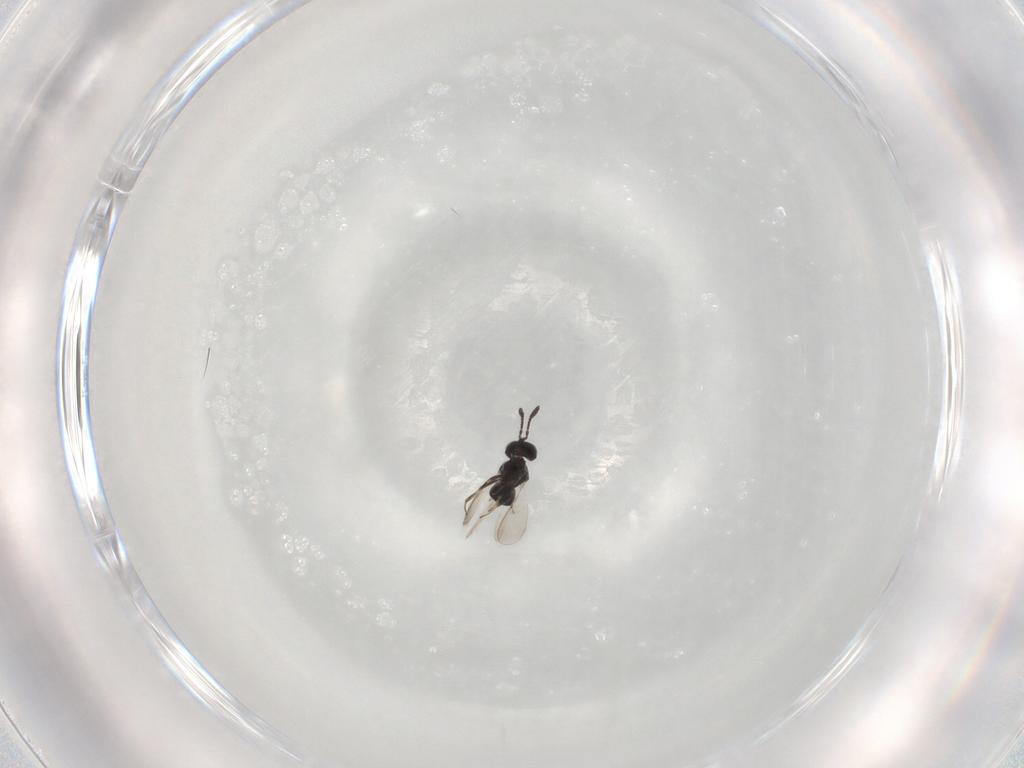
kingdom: Animalia
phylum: Arthropoda
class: Insecta
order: Hymenoptera
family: Scelionidae
